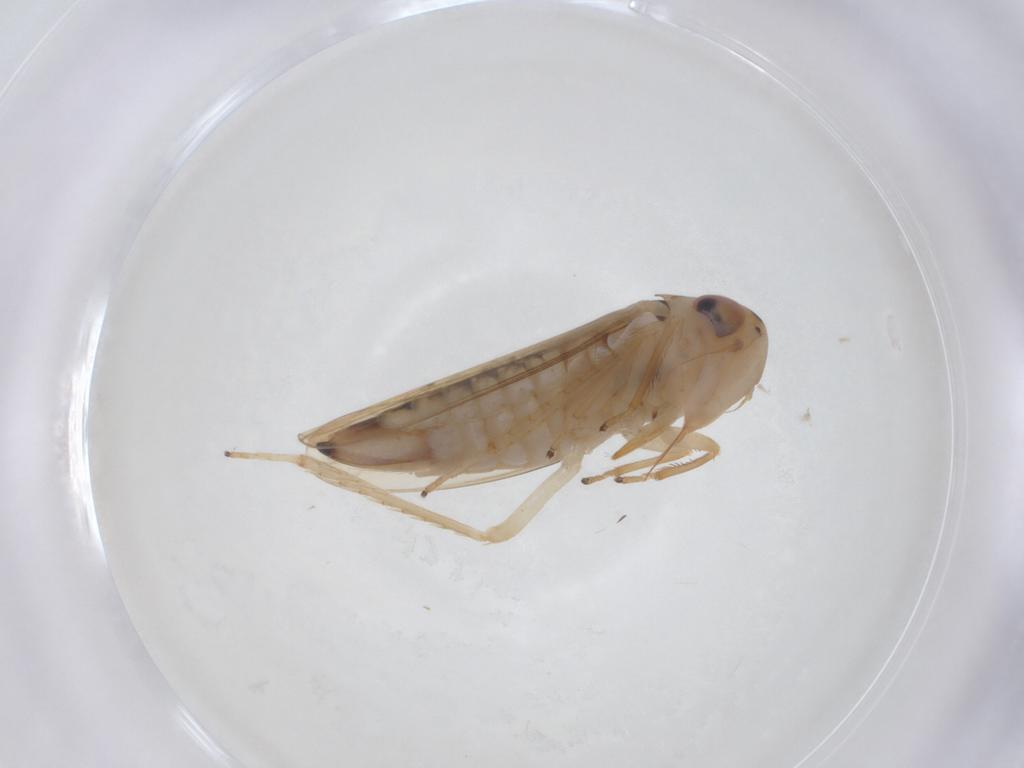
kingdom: Animalia
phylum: Arthropoda
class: Insecta
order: Hemiptera
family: Cicadellidae
